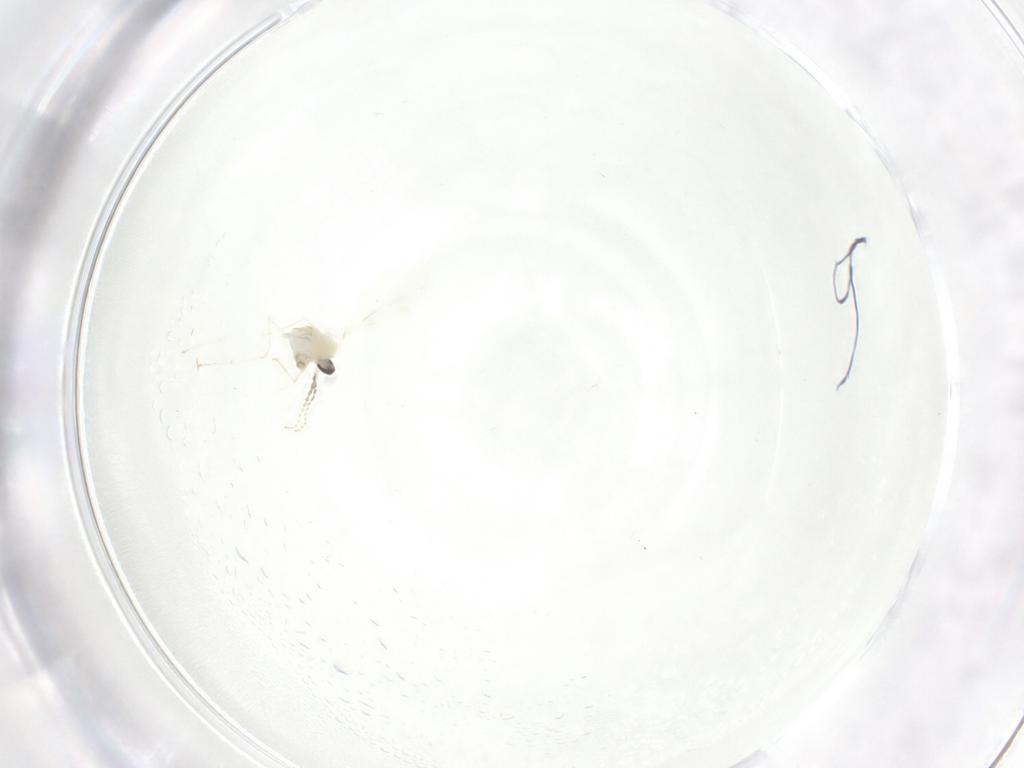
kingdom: Animalia
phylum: Arthropoda
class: Insecta
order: Diptera
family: Cecidomyiidae
